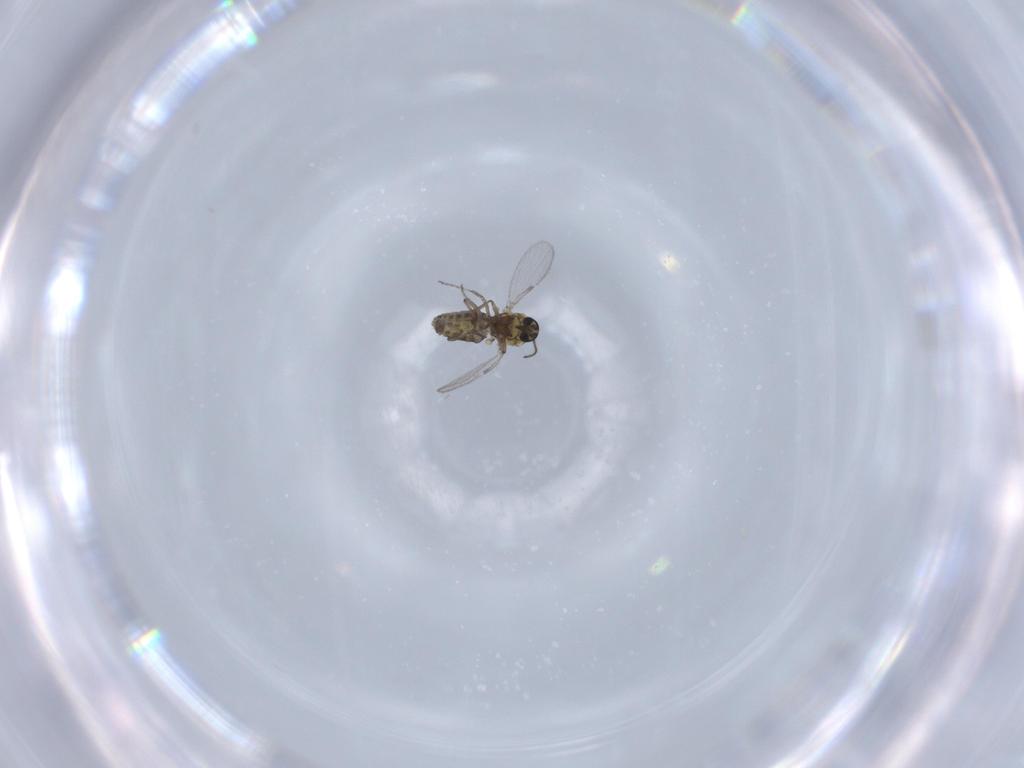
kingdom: Animalia
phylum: Arthropoda
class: Insecta
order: Diptera
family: Ceratopogonidae
